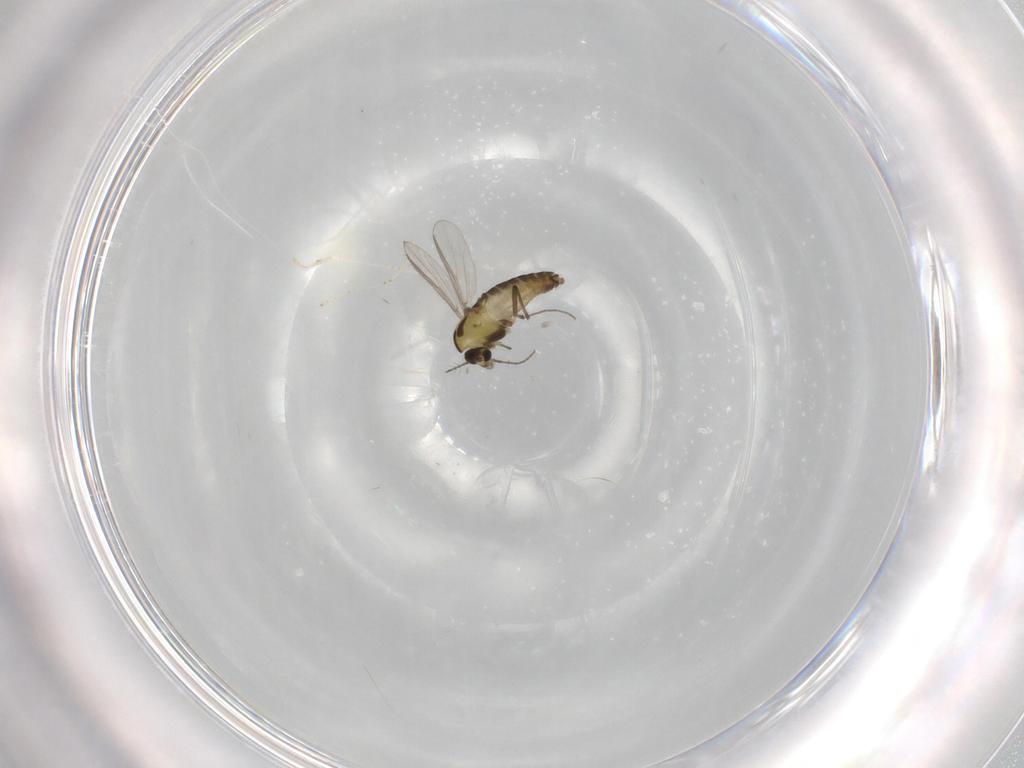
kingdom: Animalia
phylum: Arthropoda
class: Insecta
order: Diptera
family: Chironomidae
